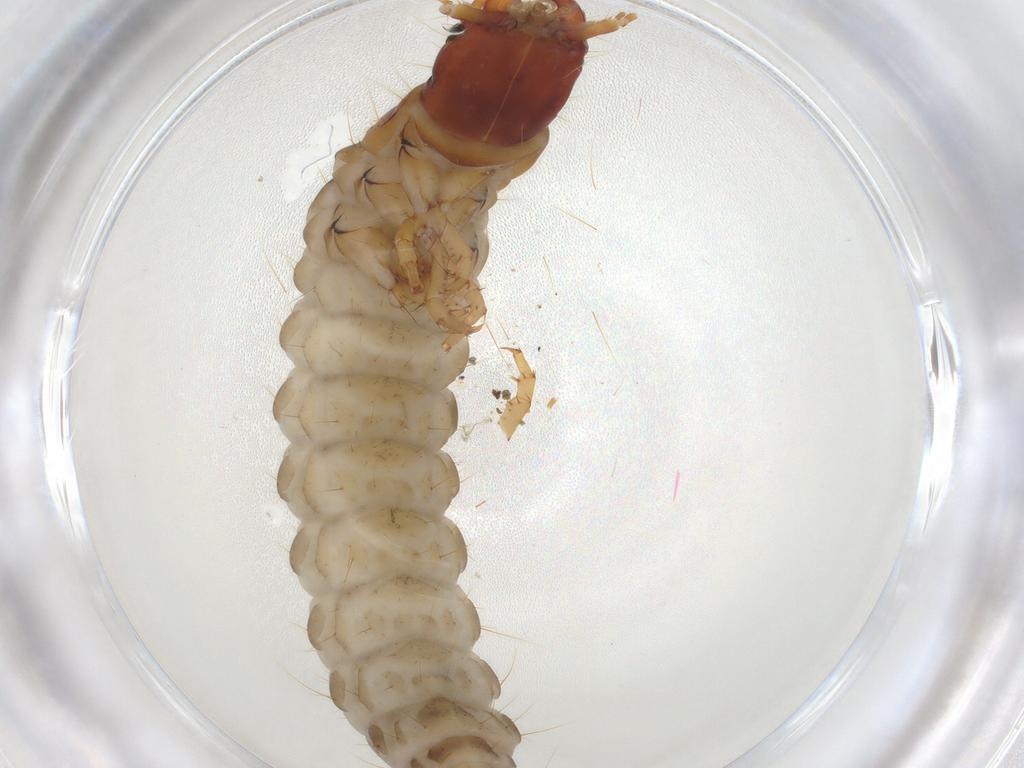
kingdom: Animalia
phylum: Arthropoda
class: Insecta
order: Coleoptera
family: Carabidae
